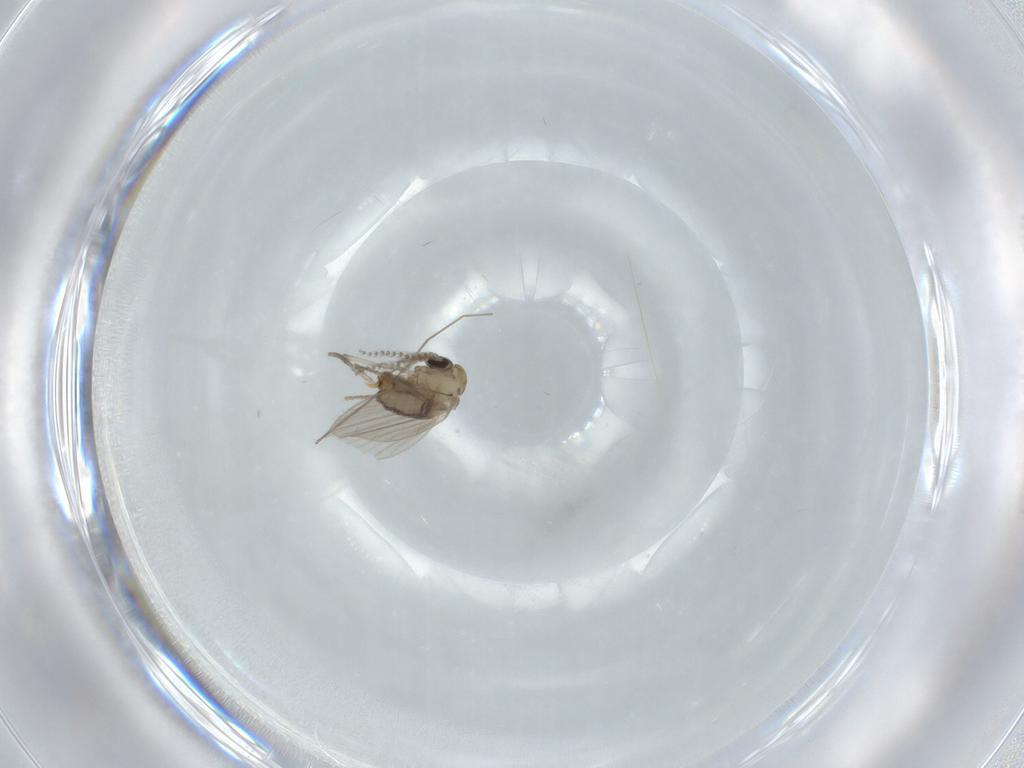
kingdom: Animalia
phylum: Arthropoda
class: Insecta
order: Diptera
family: Psychodidae
